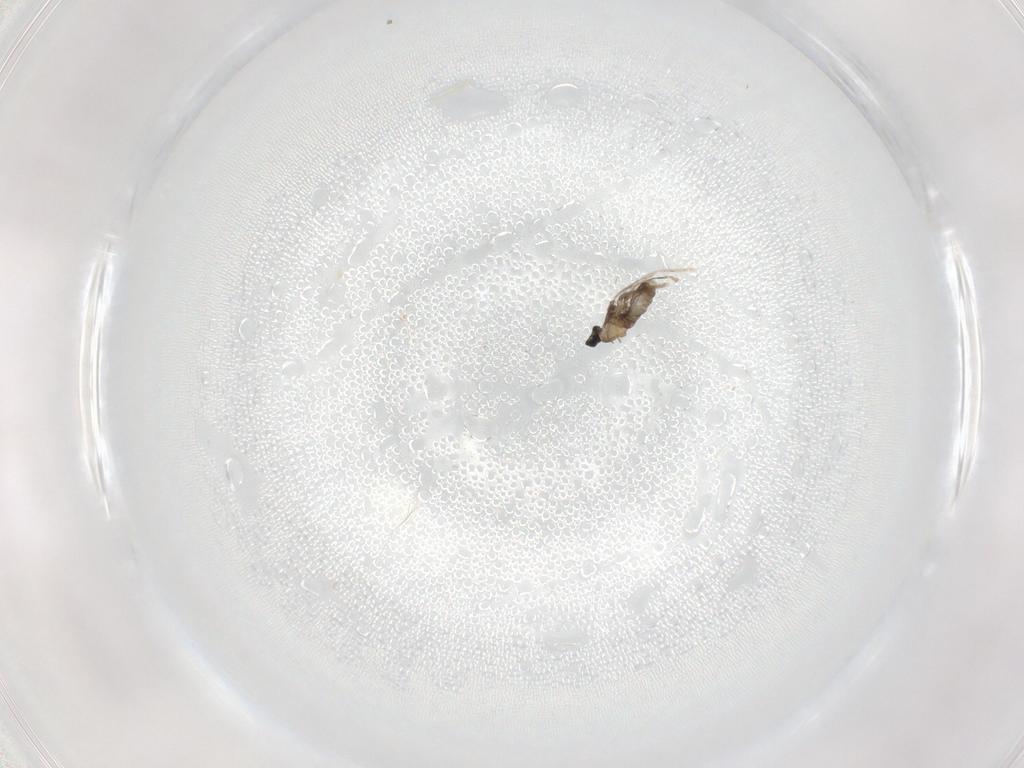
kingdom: Animalia
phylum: Arthropoda
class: Insecta
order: Diptera
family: Cecidomyiidae
